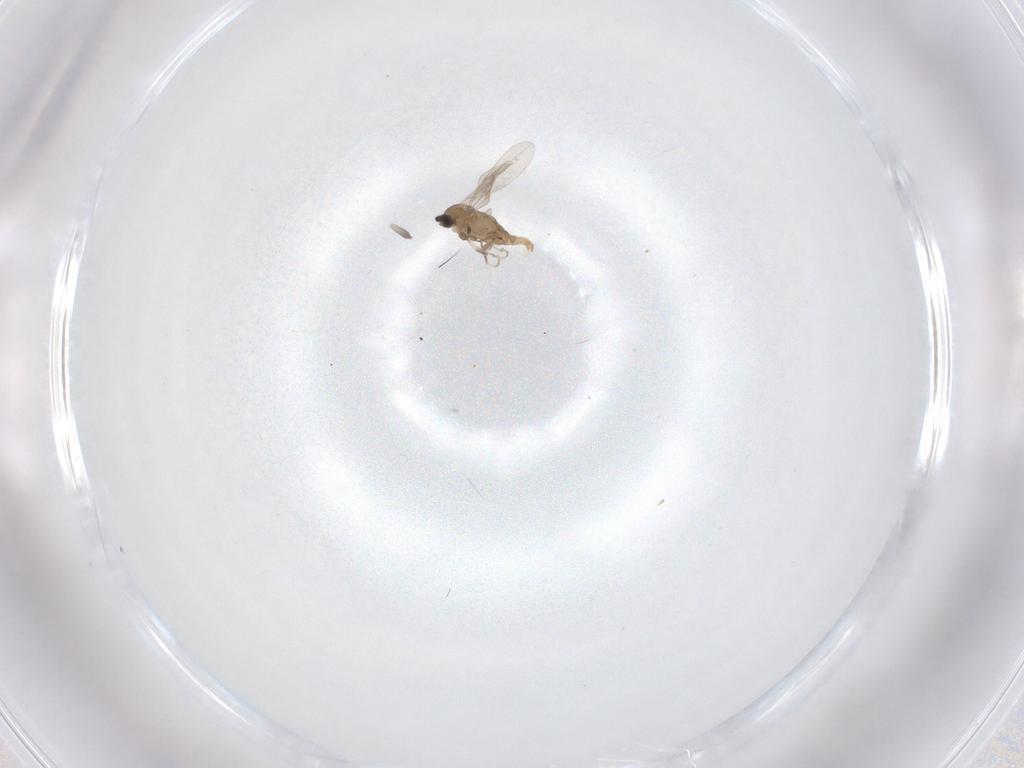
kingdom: Animalia
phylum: Arthropoda
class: Insecta
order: Diptera
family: Cecidomyiidae
